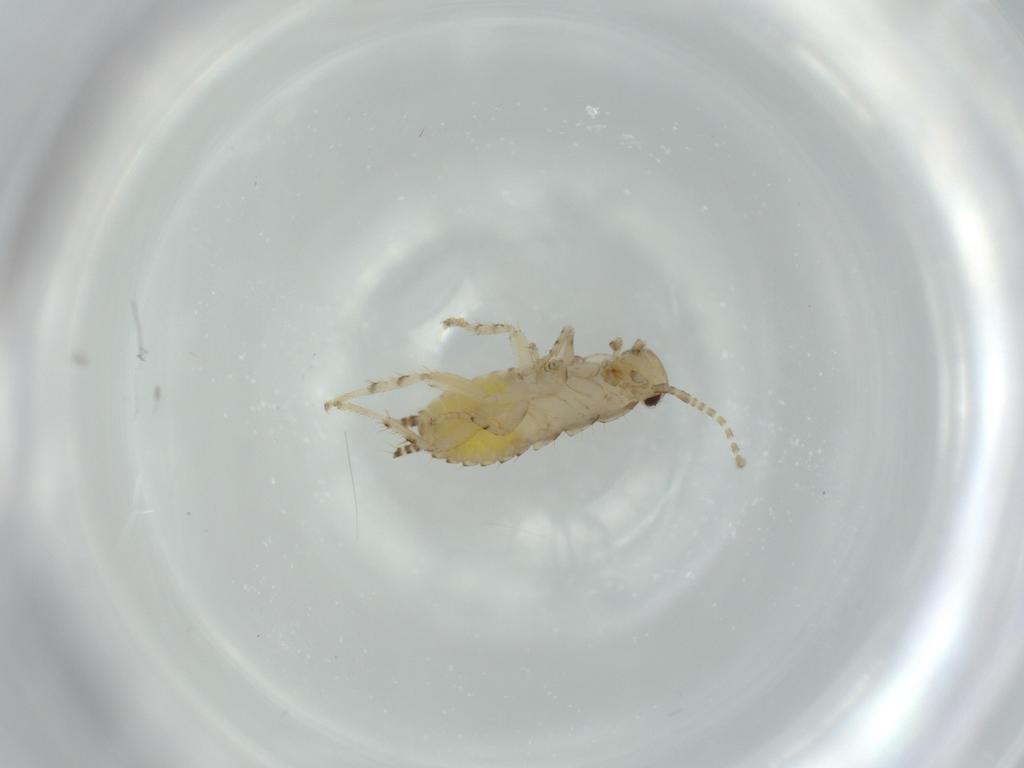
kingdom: Animalia
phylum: Arthropoda
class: Insecta
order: Blattodea
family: Ectobiidae
